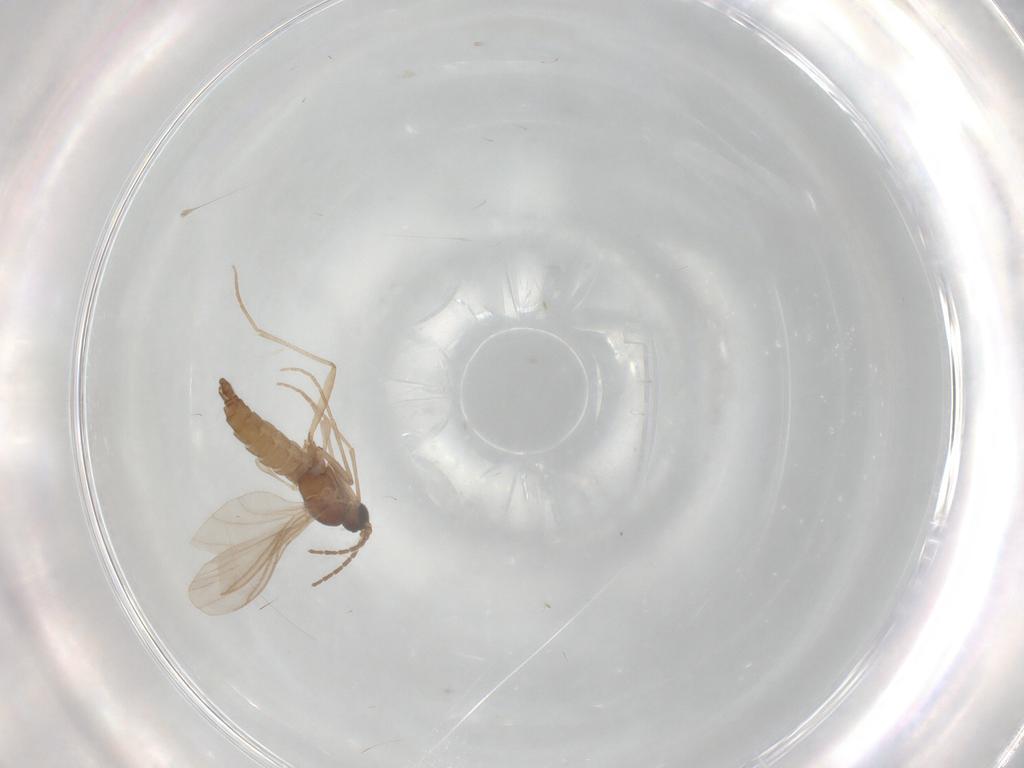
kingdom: Animalia
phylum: Arthropoda
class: Insecta
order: Diptera
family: Sciaridae
